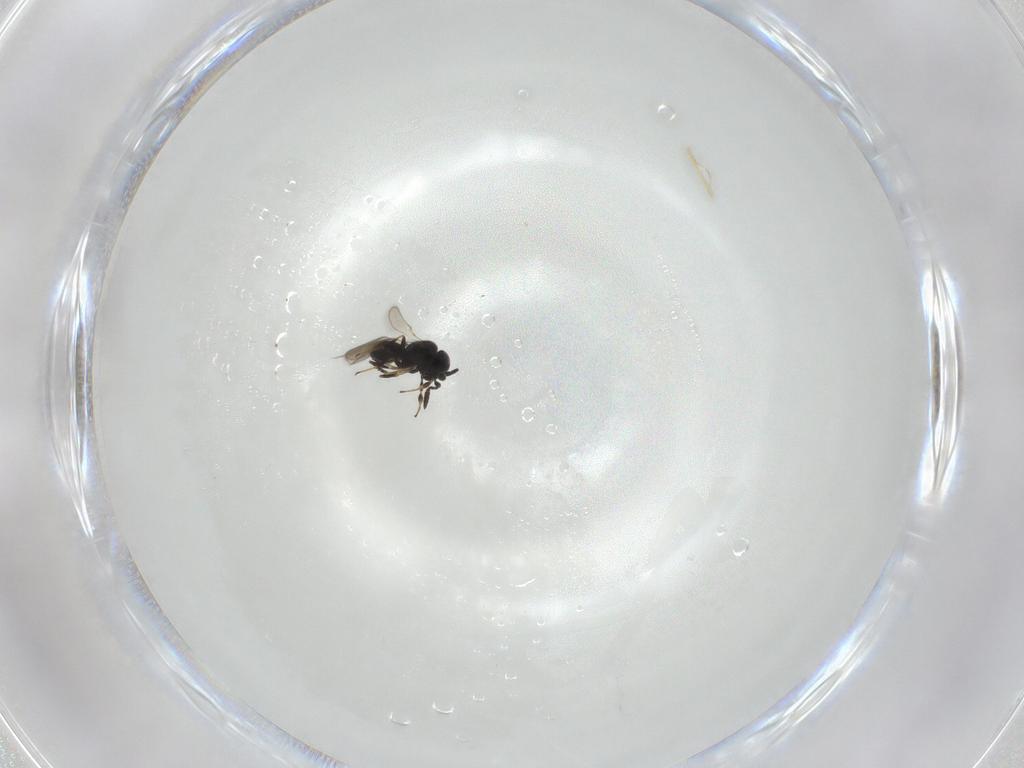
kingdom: Animalia
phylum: Arthropoda
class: Insecta
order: Hymenoptera
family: Scelionidae
